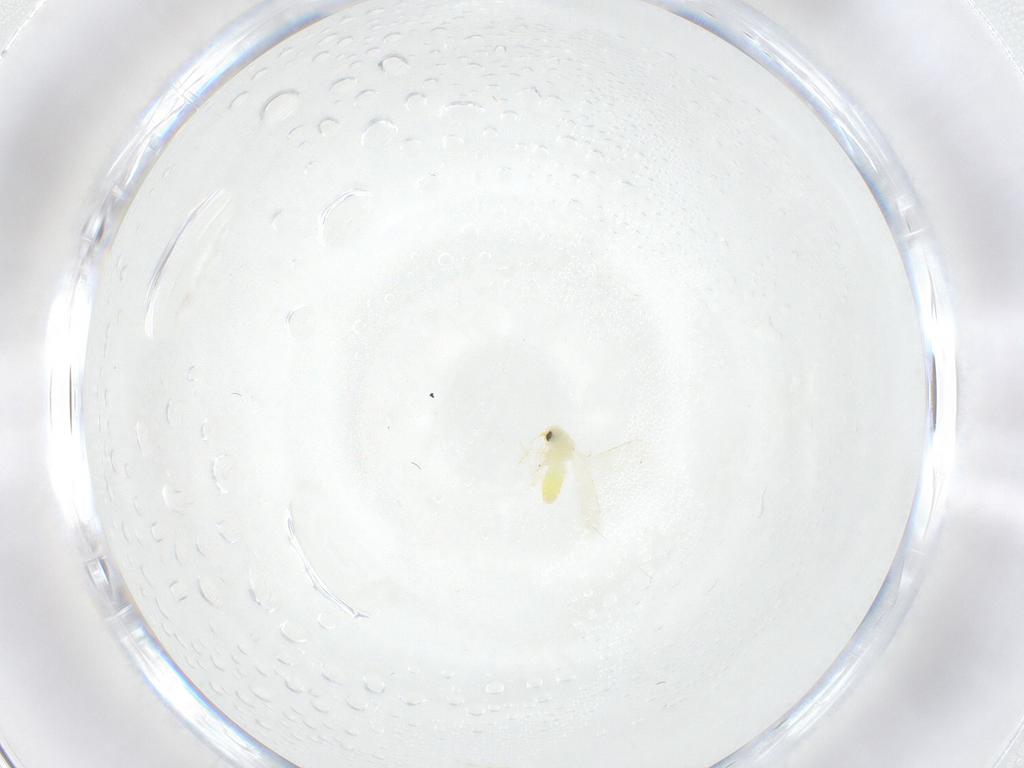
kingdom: Animalia
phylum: Arthropoda
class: Insecta
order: Hemiptera
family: Aleyrodidae
